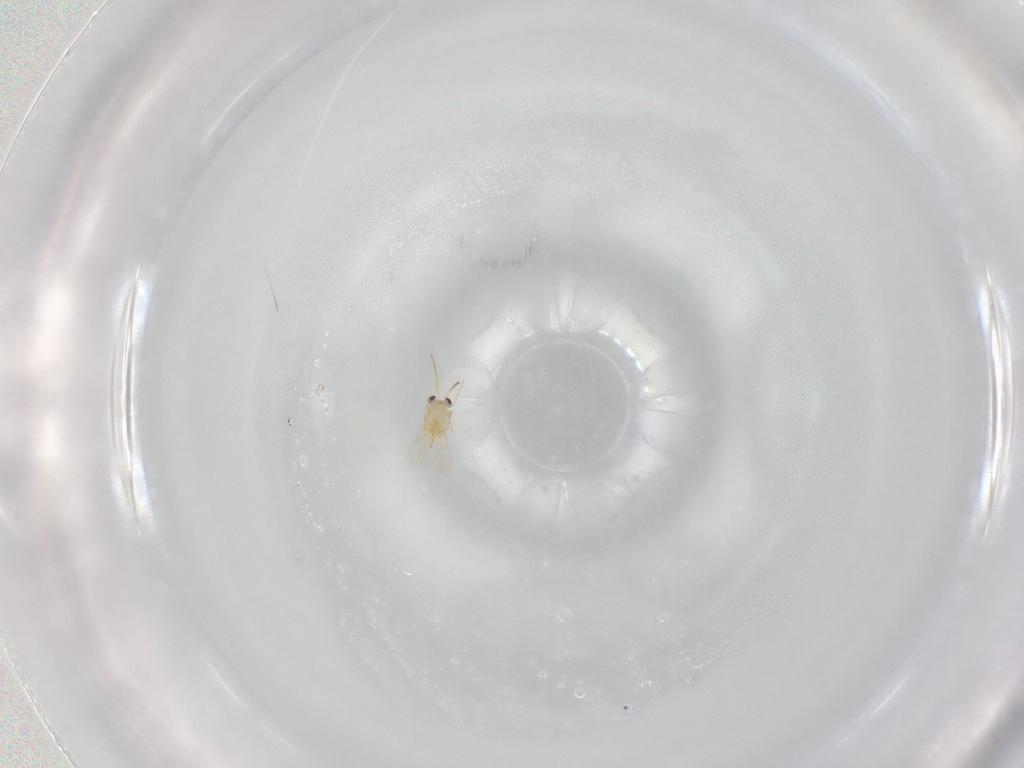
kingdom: Animalia
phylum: Arthropoda
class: Insecta
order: Hymenoptera
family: Aphelinidae
